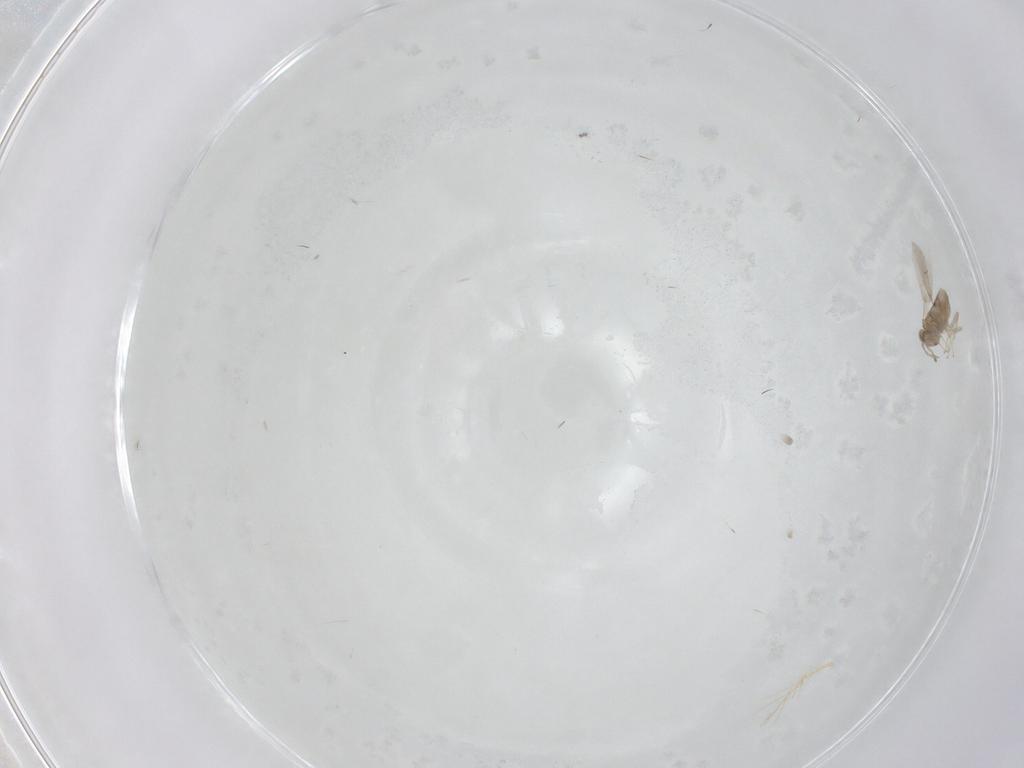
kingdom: Animalia
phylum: Arthropoda
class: Insecta
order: Hymenoptera
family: Aphelinidae
